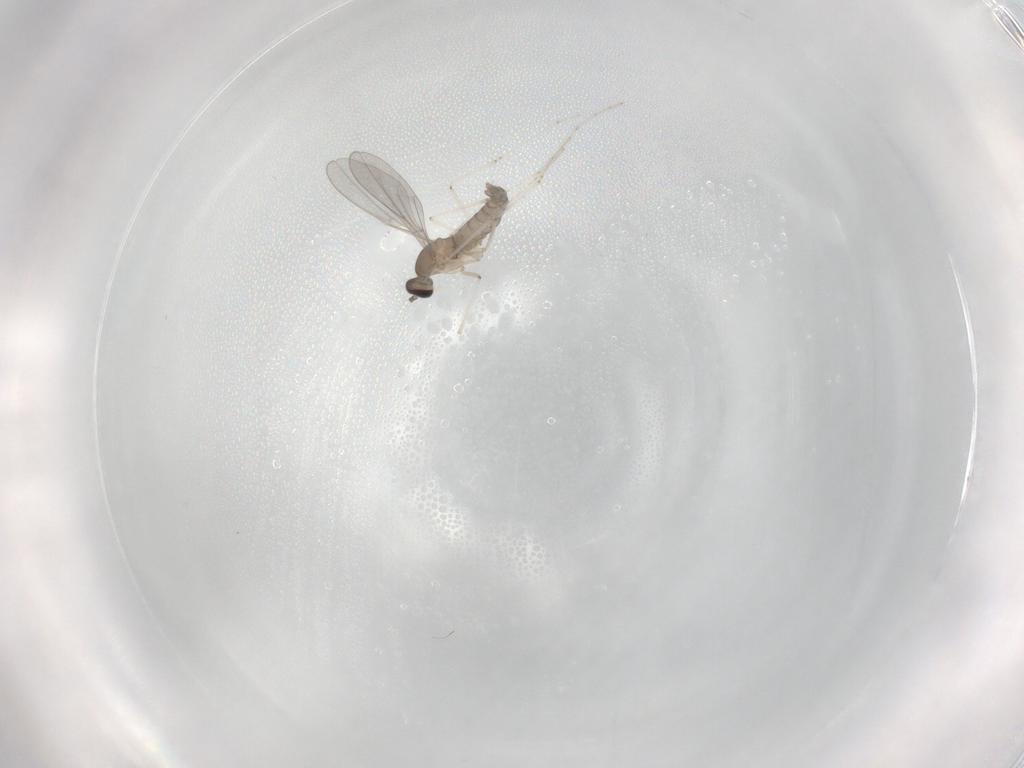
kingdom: Animalia
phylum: Arthropoda
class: Insecta
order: Diptera
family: Cecidomyiidae
